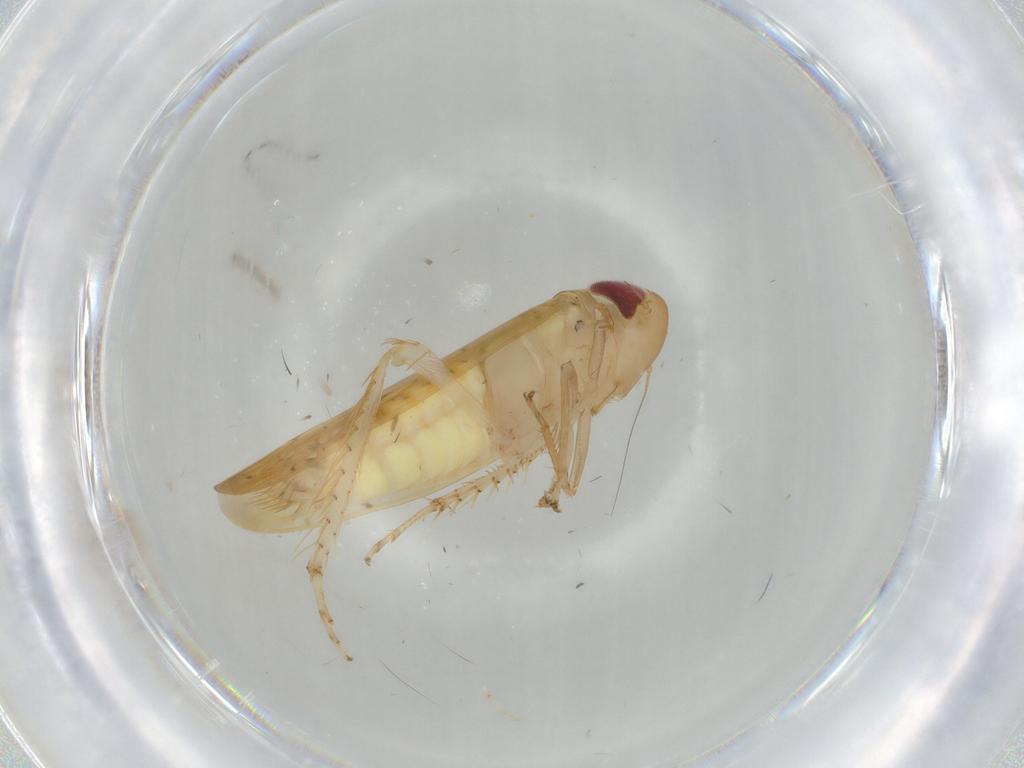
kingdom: Animalia
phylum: Arthropoda
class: Insecta
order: Hemiptera
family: Cicadellidae
